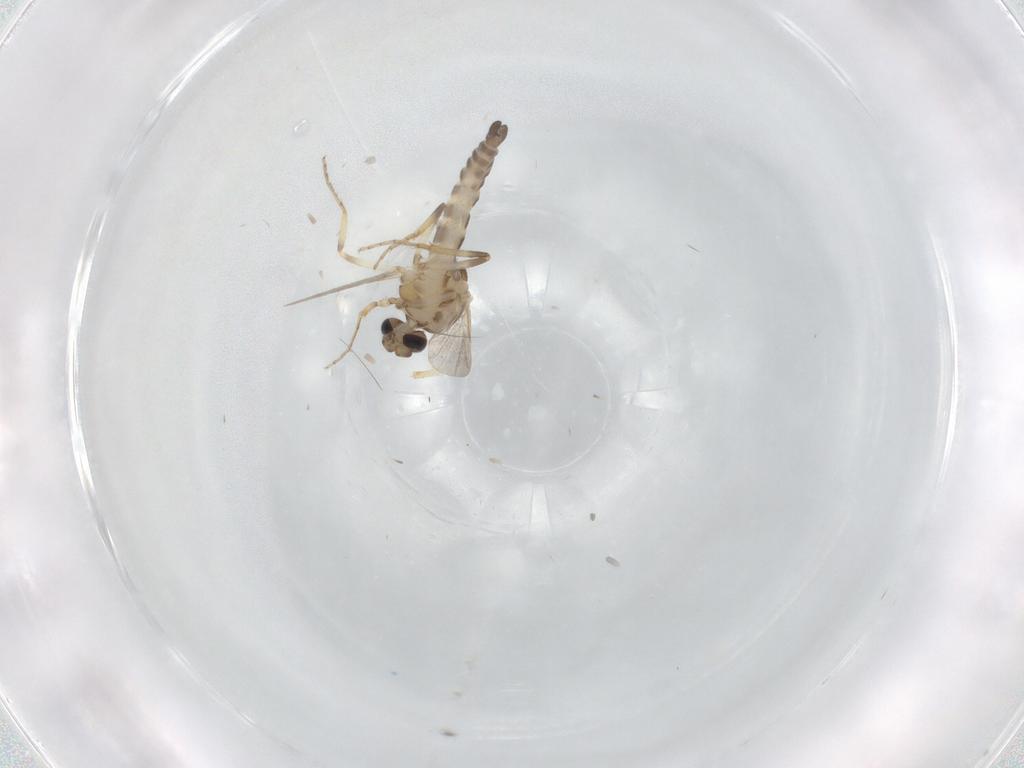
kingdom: Animalia
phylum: Arthropoda
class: Insecta
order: Diptera
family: Ceratopogonidae
